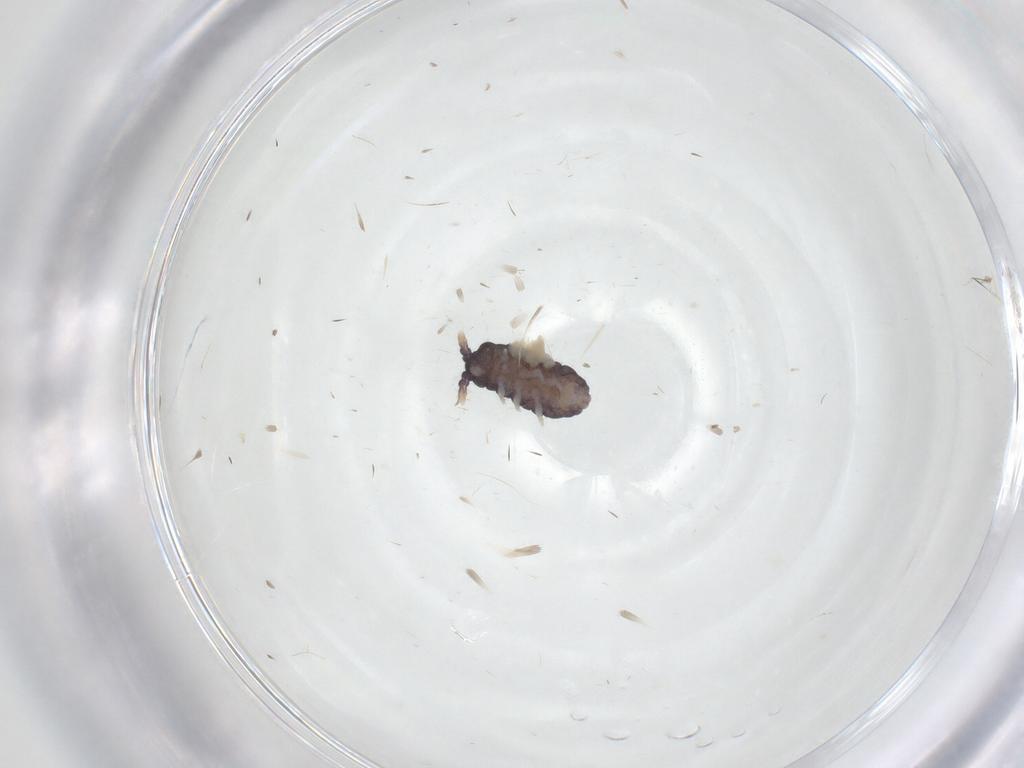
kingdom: Animalia
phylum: Arthropoda
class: Collembola
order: Poduromorpha
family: Neanuridae
